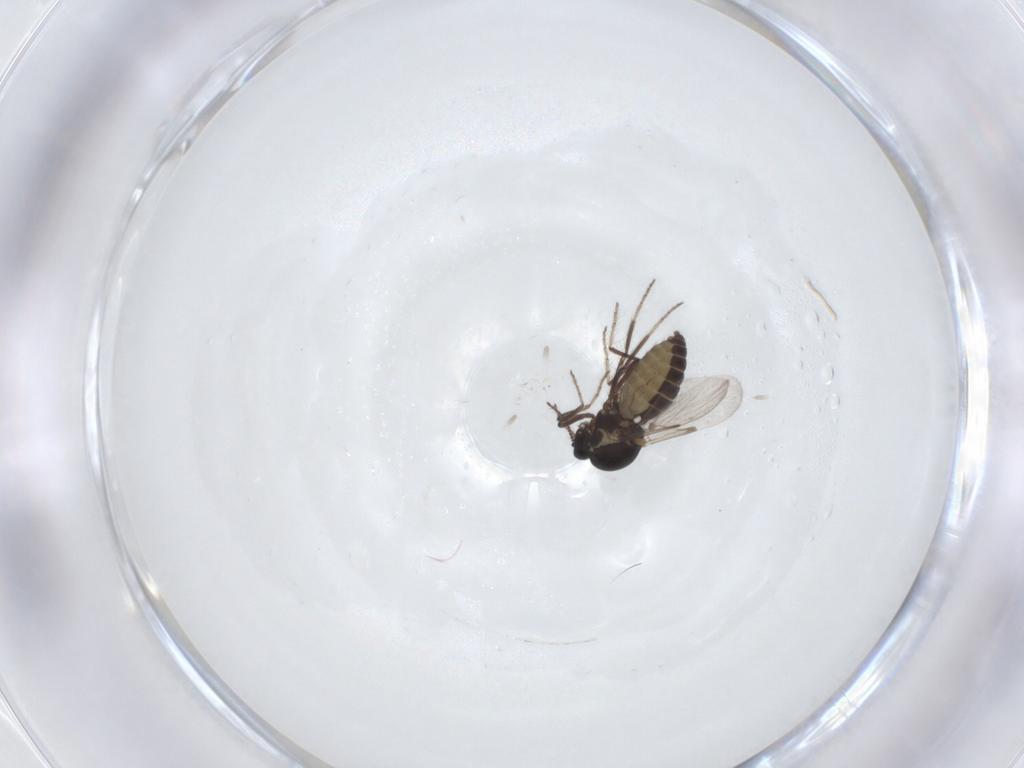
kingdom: Animalia
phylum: Arthropoda
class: Insecta
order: Diptera
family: Ceratopogonidae
